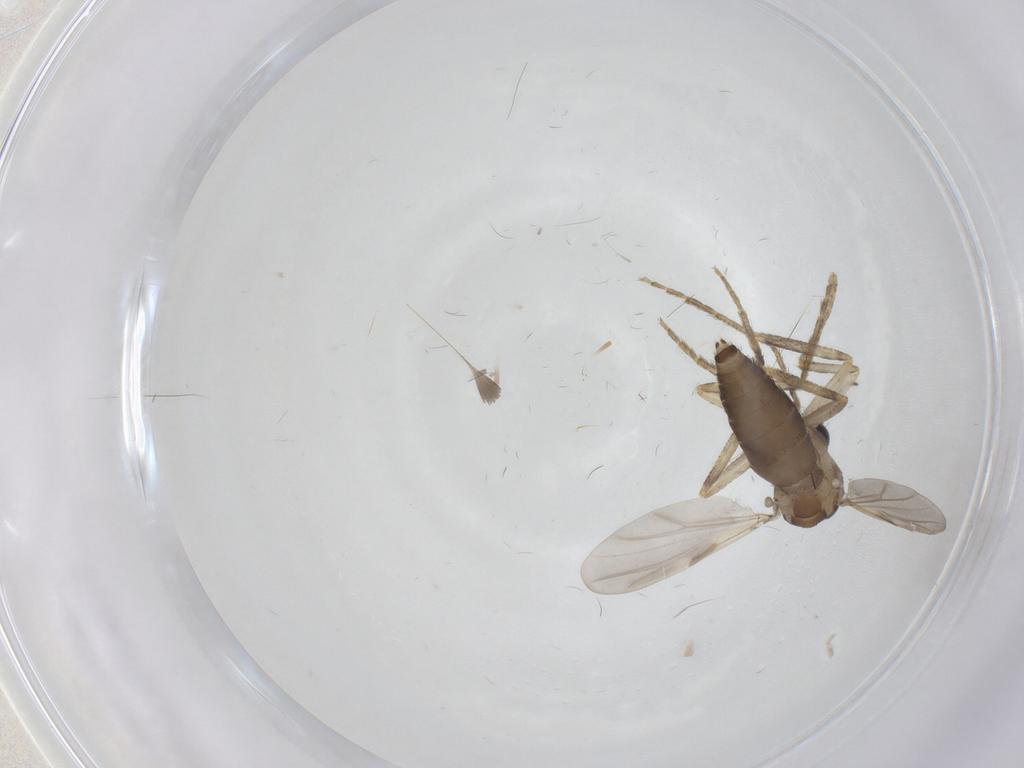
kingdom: Animalia
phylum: Arthropoda
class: Insecta
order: Diptera
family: Ceratopogonidae
